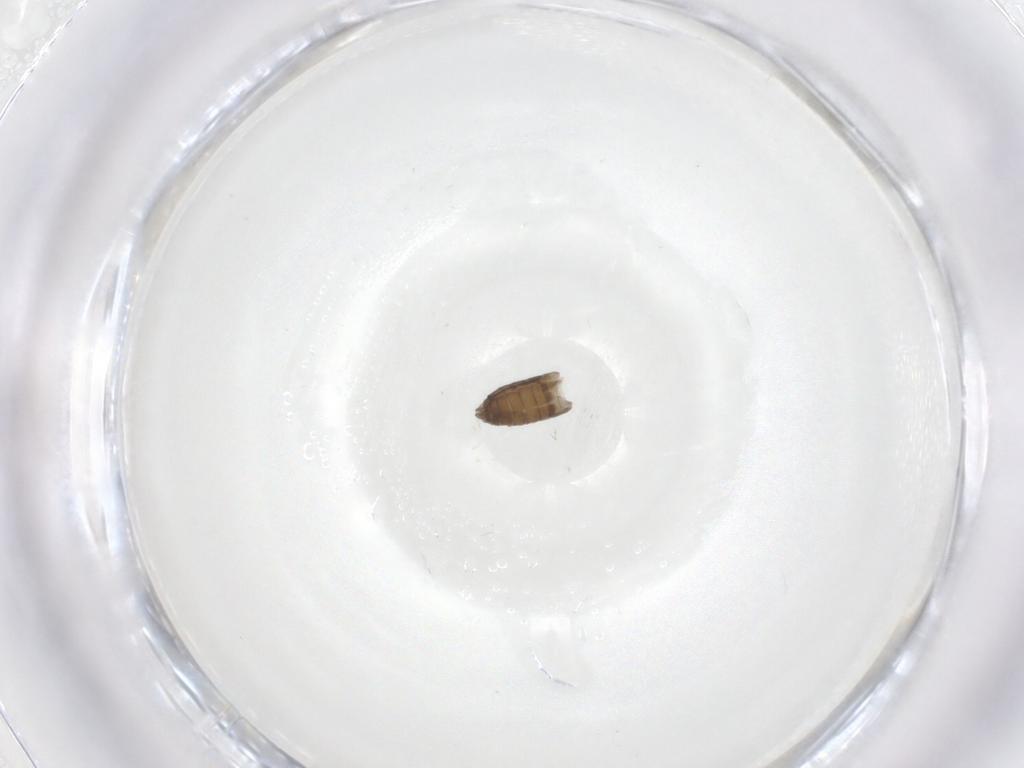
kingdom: Animalia
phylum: Arthropoda
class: Insecta
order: Diptera
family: Psychodidae
